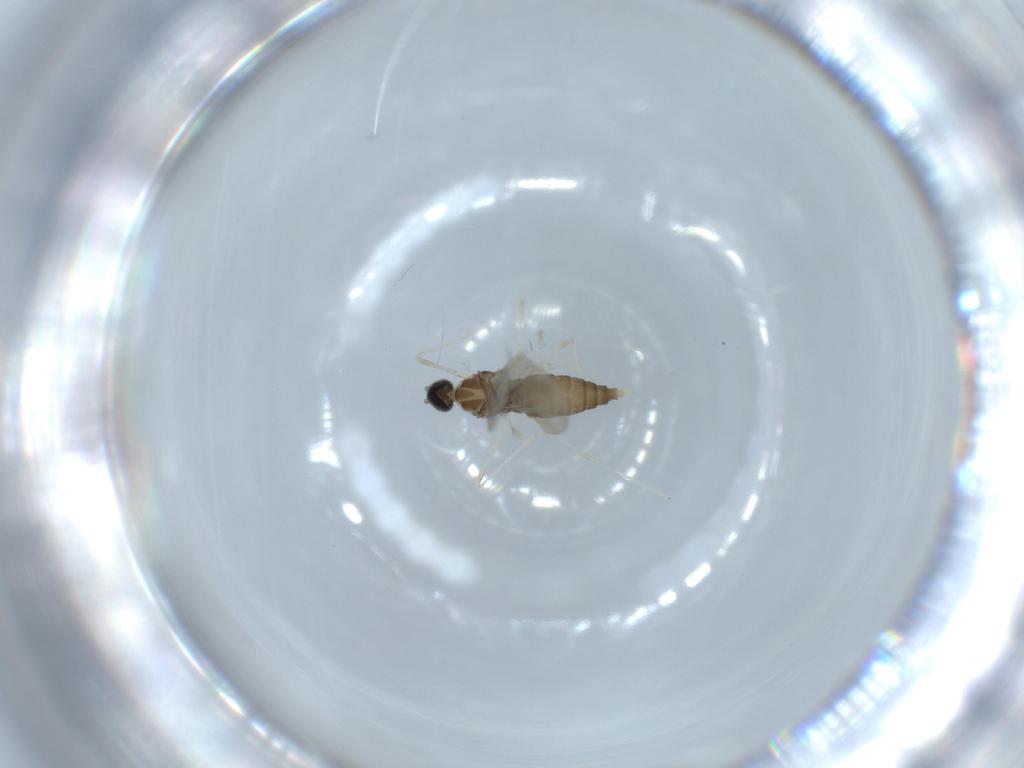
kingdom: Animalia
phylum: Arthropoda
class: Insecta
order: Diptera
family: Cecidomyiidae
